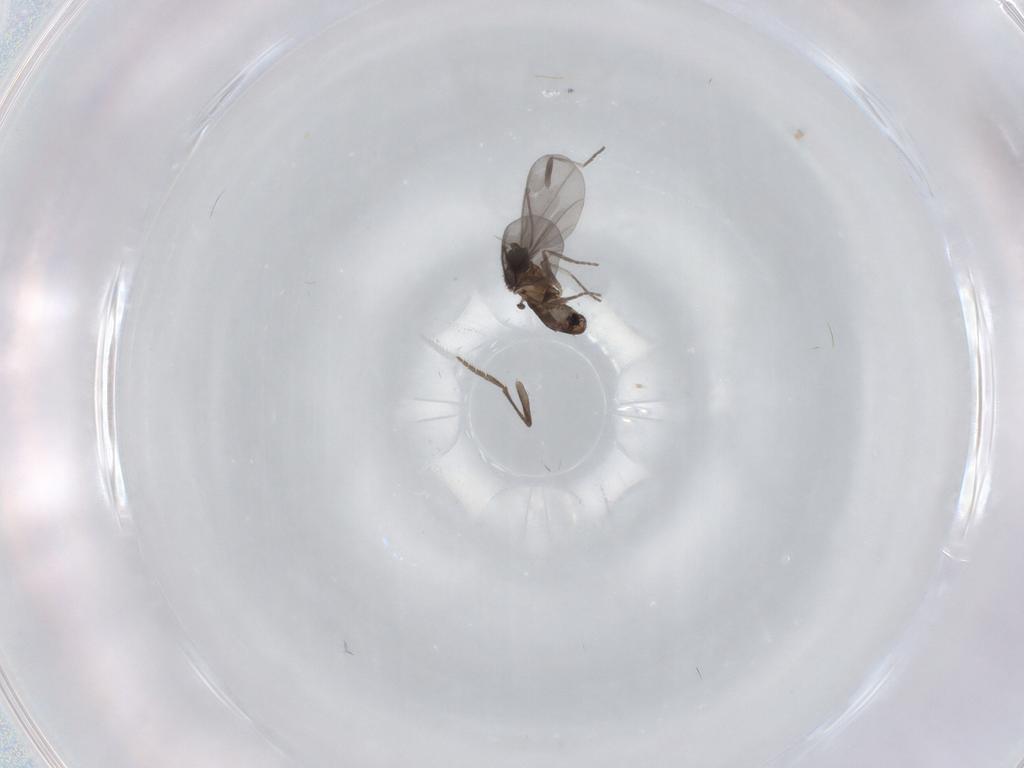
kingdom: Animalia
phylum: Arthropoda
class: Insecta
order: Diptera
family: Phoridae
